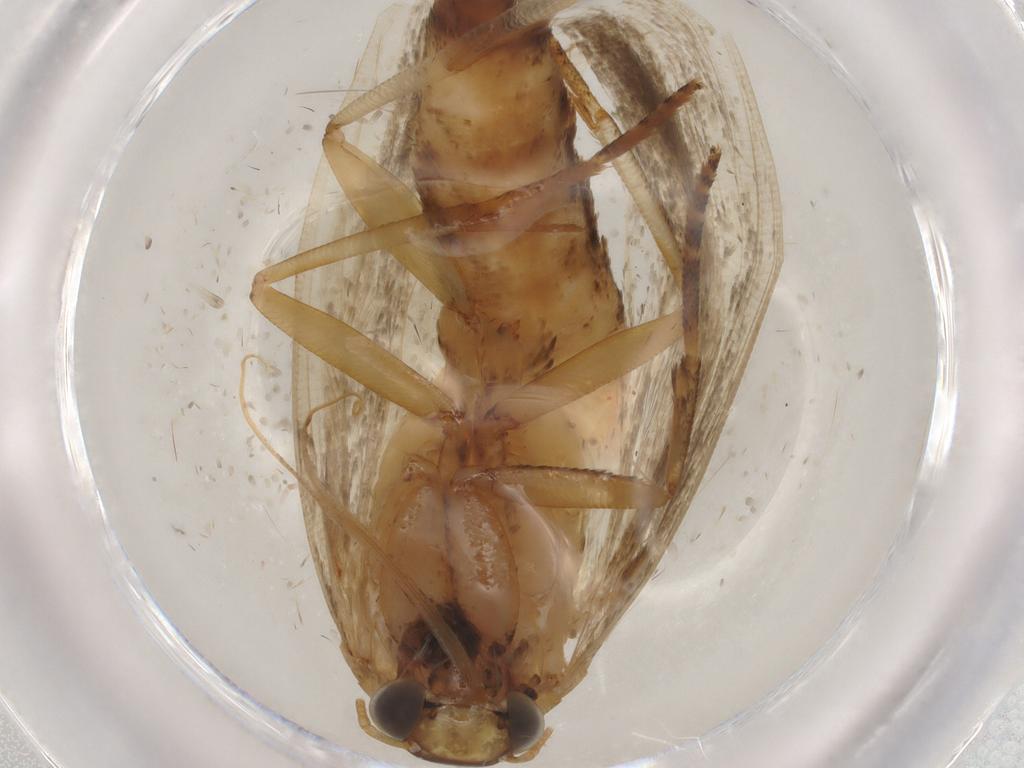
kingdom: Animalia
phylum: Arthropoda
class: Insecta
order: Lepidoptera
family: Gelechiidae
